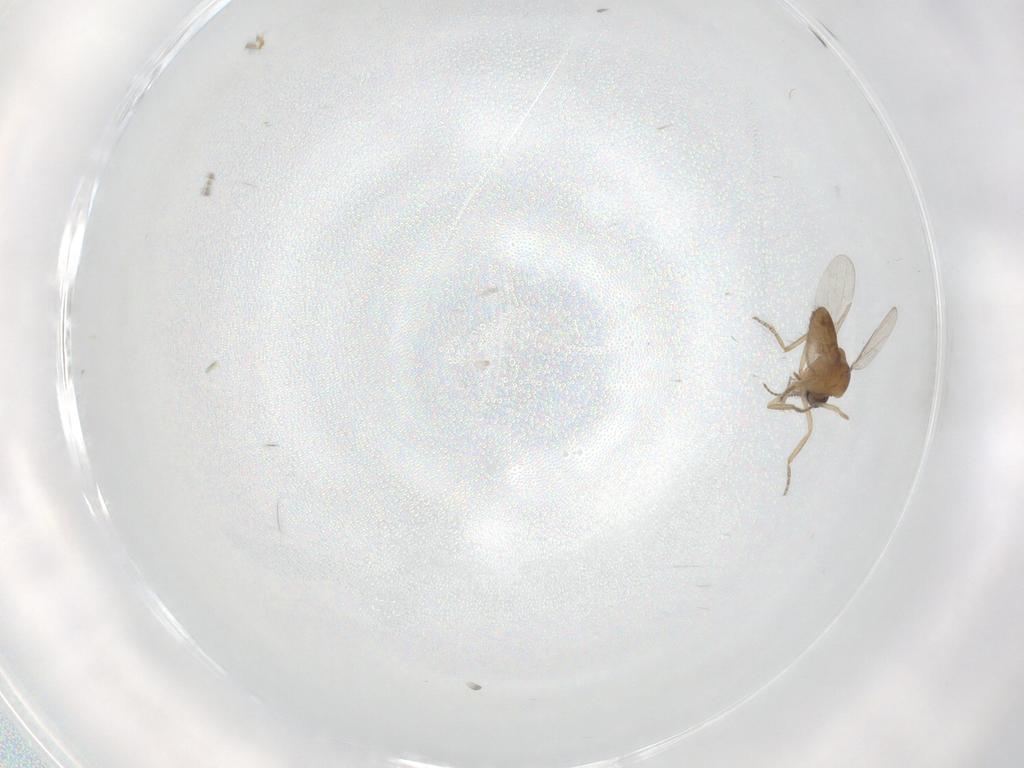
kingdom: Animalia
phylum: Arthropoda
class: Insecta
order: Diptera
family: Ceratopogonidae
